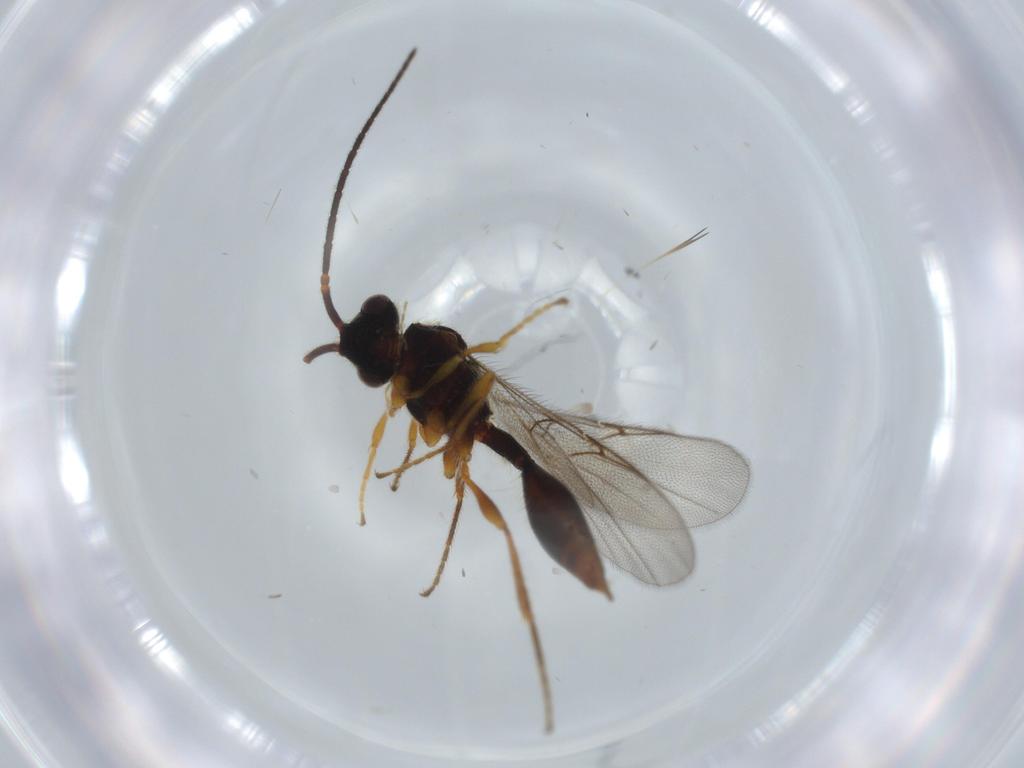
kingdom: Animalia
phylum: Arthropoda
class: Insecta
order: Hymenoptera
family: Diapriidae
